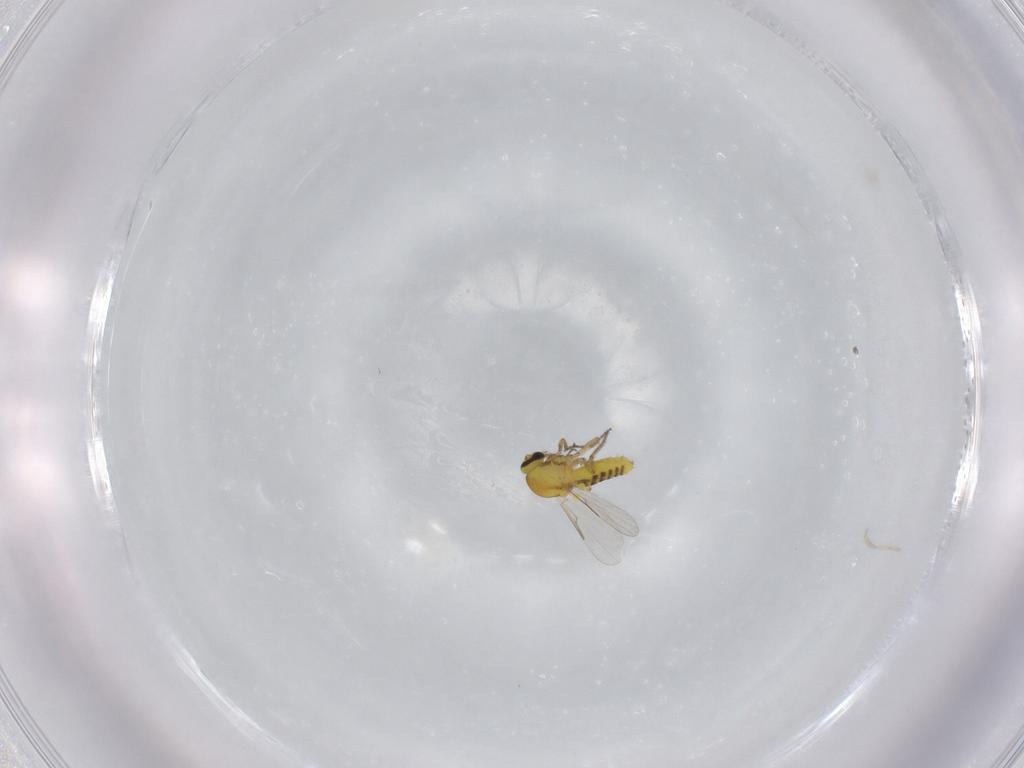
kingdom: Animalia
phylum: Arthropoda
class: Insecta
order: Diptera
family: Ceratopogonidae
